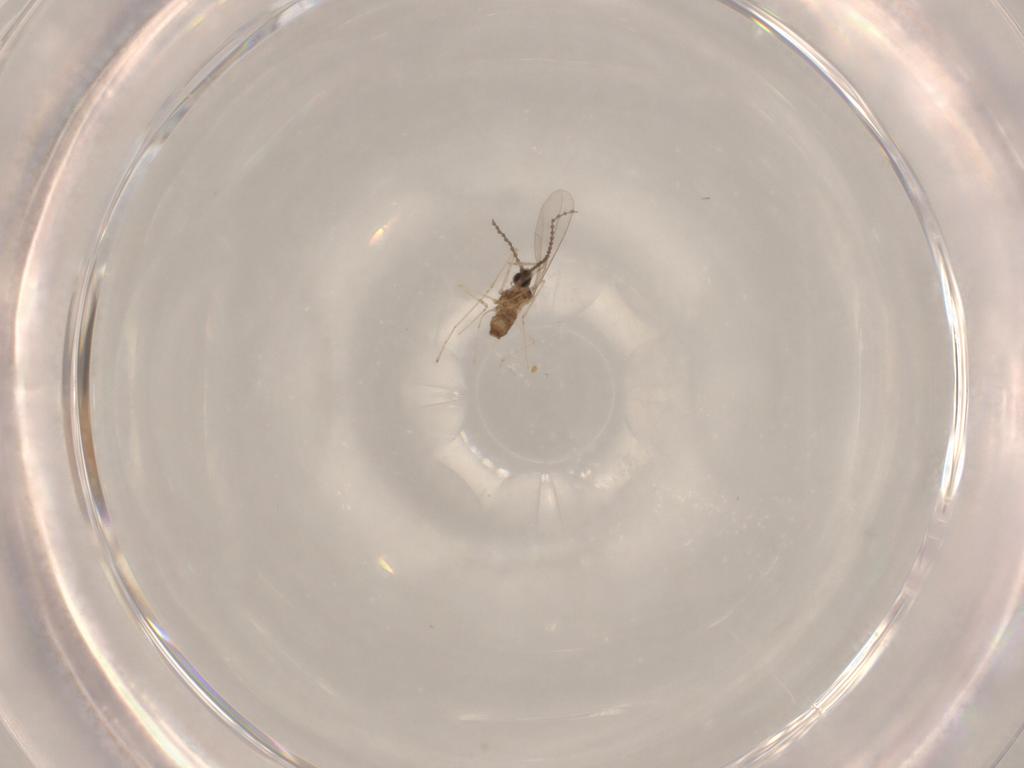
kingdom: Animalia
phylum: Arthropoda
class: Insecta
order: Diptera
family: Cecidomyiidae
